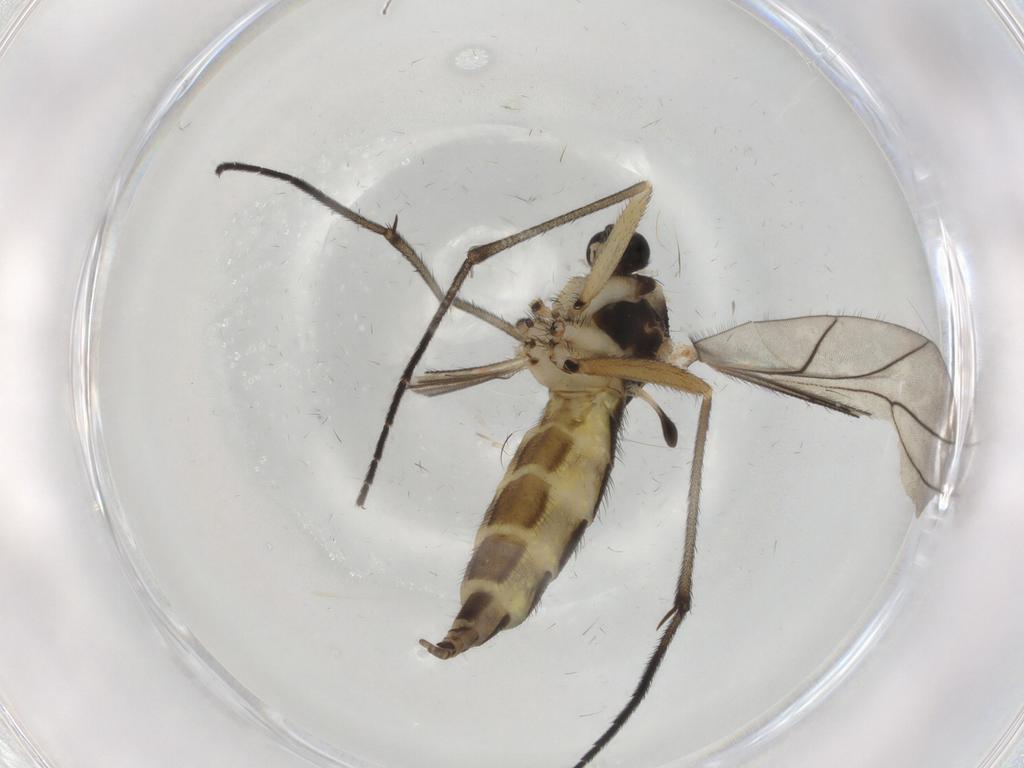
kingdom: Animalia
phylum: Arthropoda
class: Insecta
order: Diptera
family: Sciaridae
